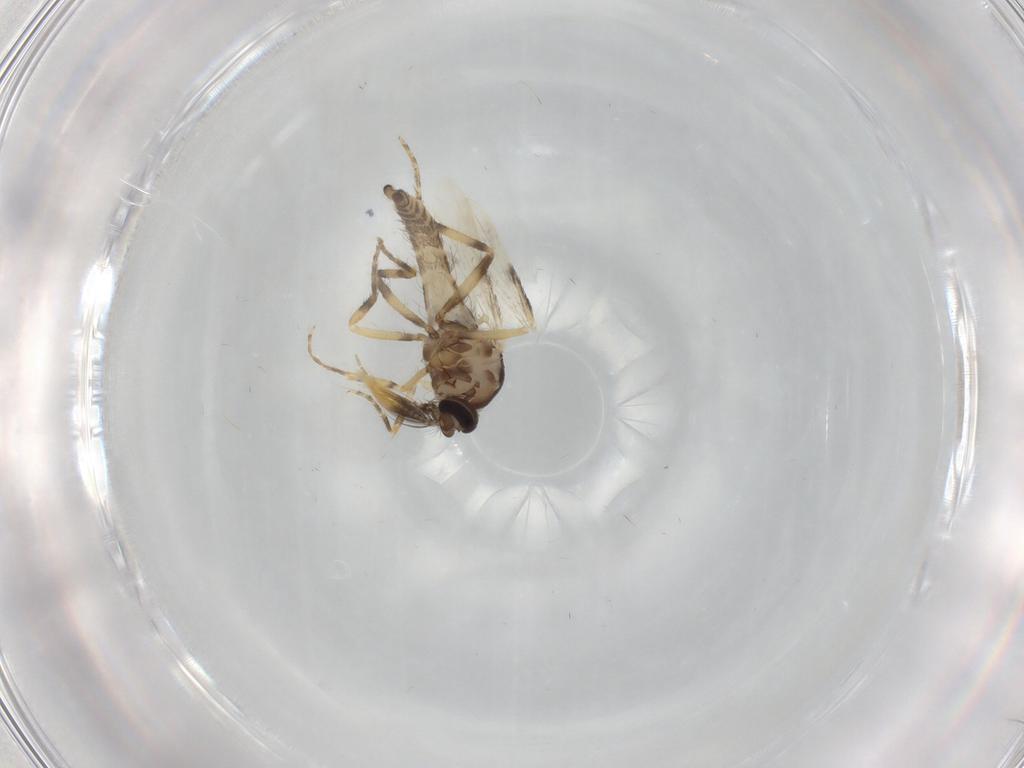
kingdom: Animalia
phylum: Arthropoda
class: Insecta
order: Diptera
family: Ceratopogonidae
